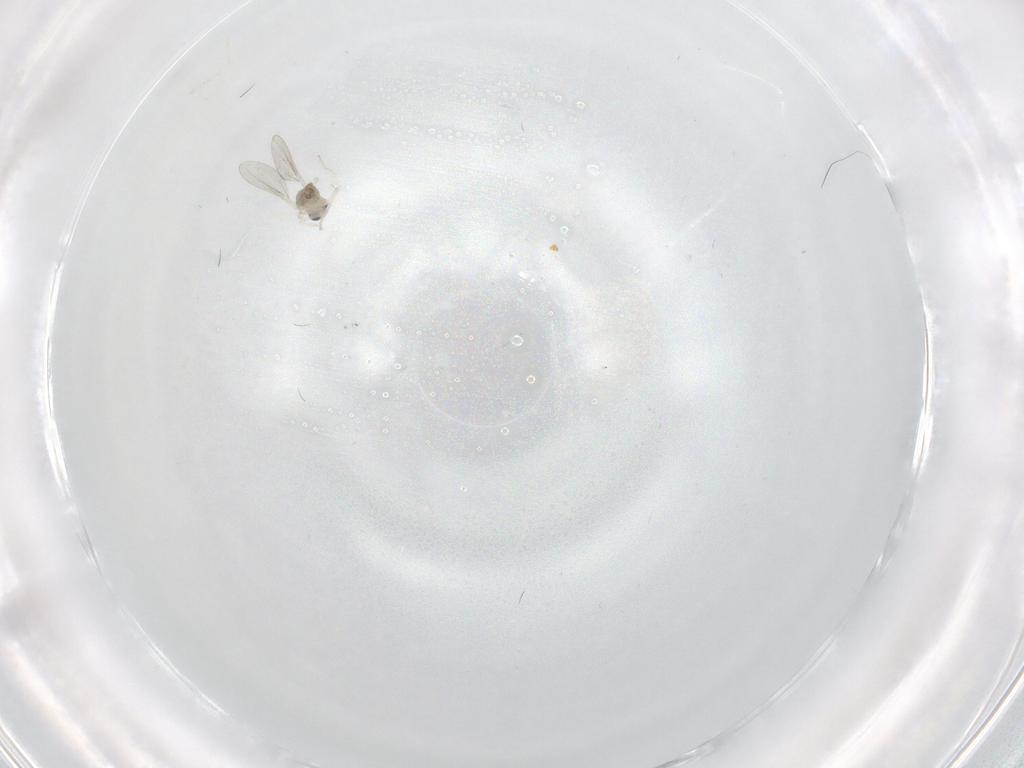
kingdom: Animalia
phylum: Arthropoda
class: Insecta
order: Diptera
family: Cecidomyiidae
